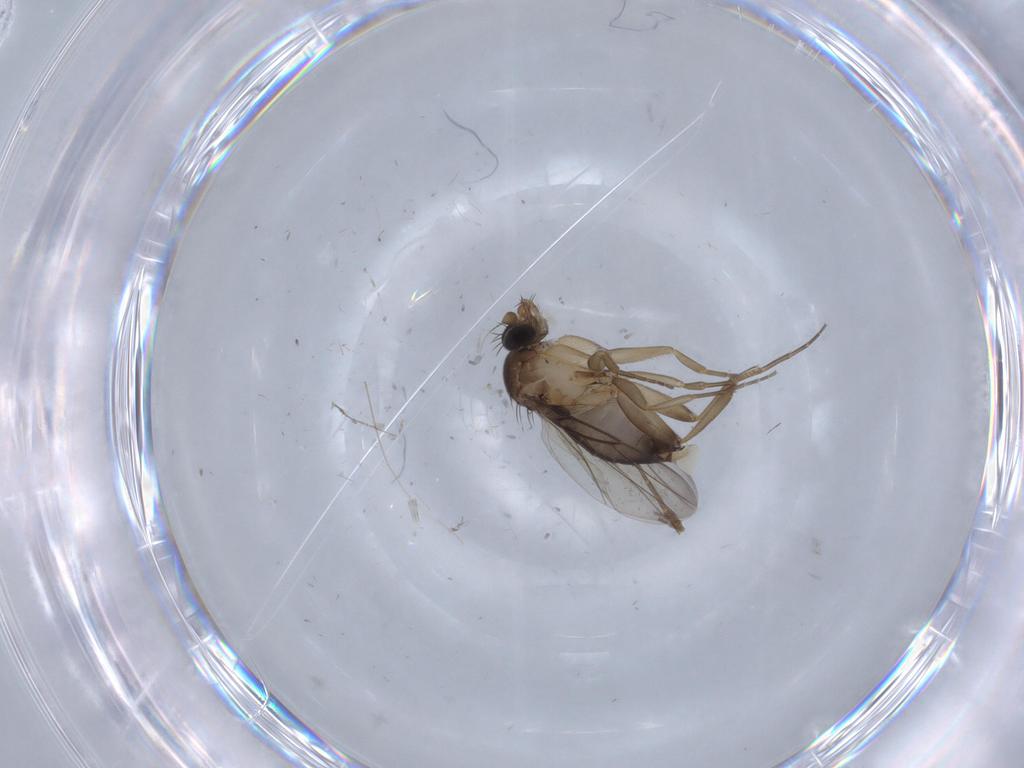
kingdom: Animalia
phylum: Arthropoda
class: Insecta
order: Diptera
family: Chironomidae
